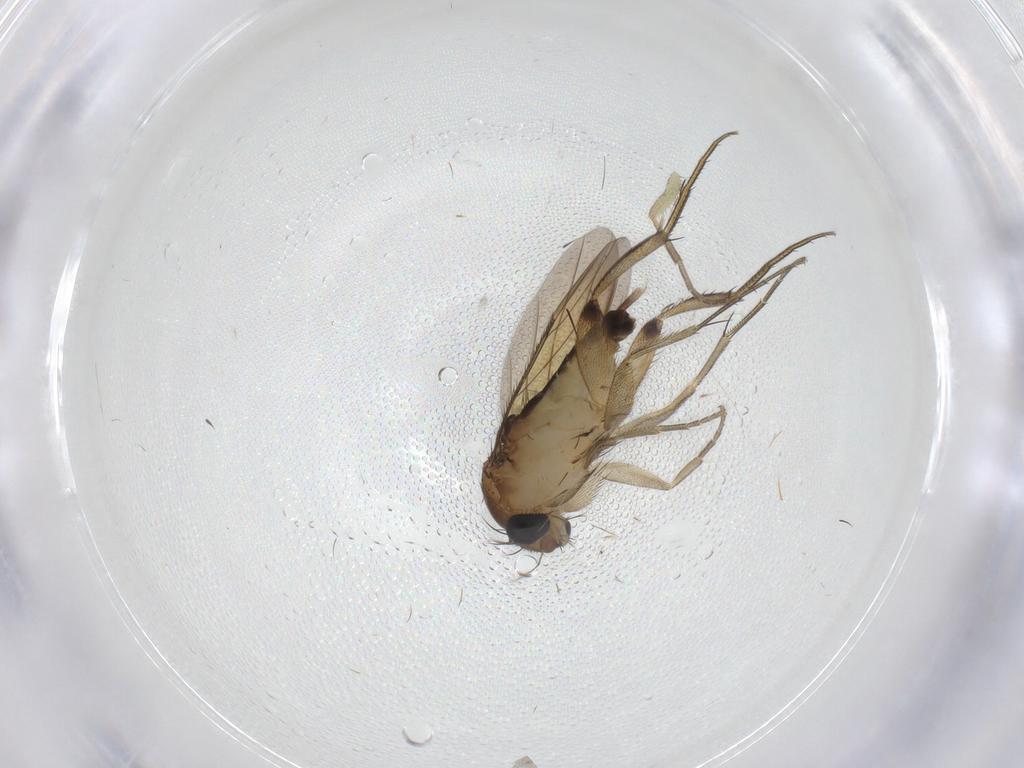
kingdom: Animalia
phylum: Arthropoda
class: Insecta
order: Diptera
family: Phoridae
